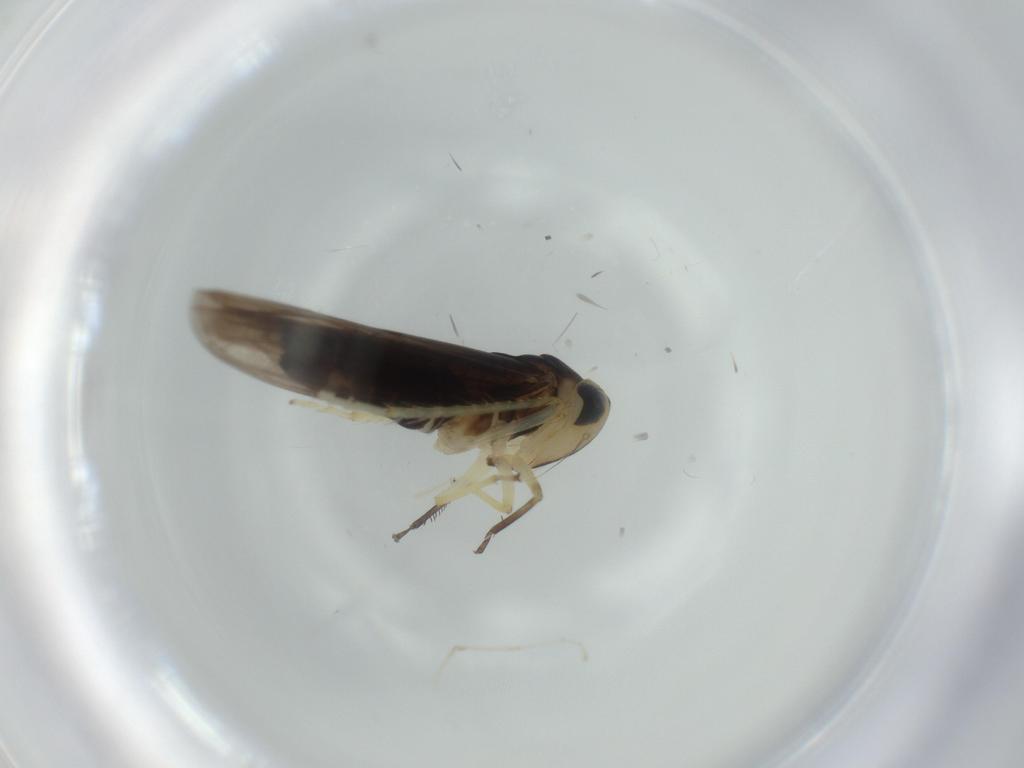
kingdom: Animalia
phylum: Arthropoda
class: Insecta
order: Hemiptera
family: Cicadellidae
